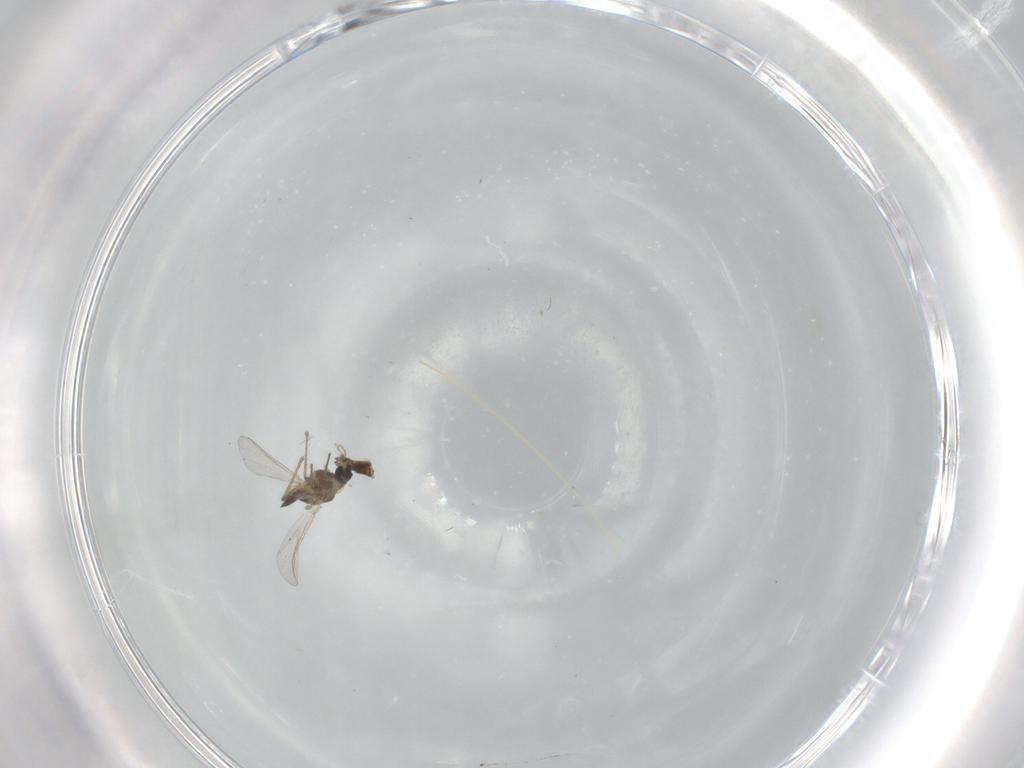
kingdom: Animalia
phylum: Arthropoda
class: Insecta
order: Diptera
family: Cecidomyiidae
